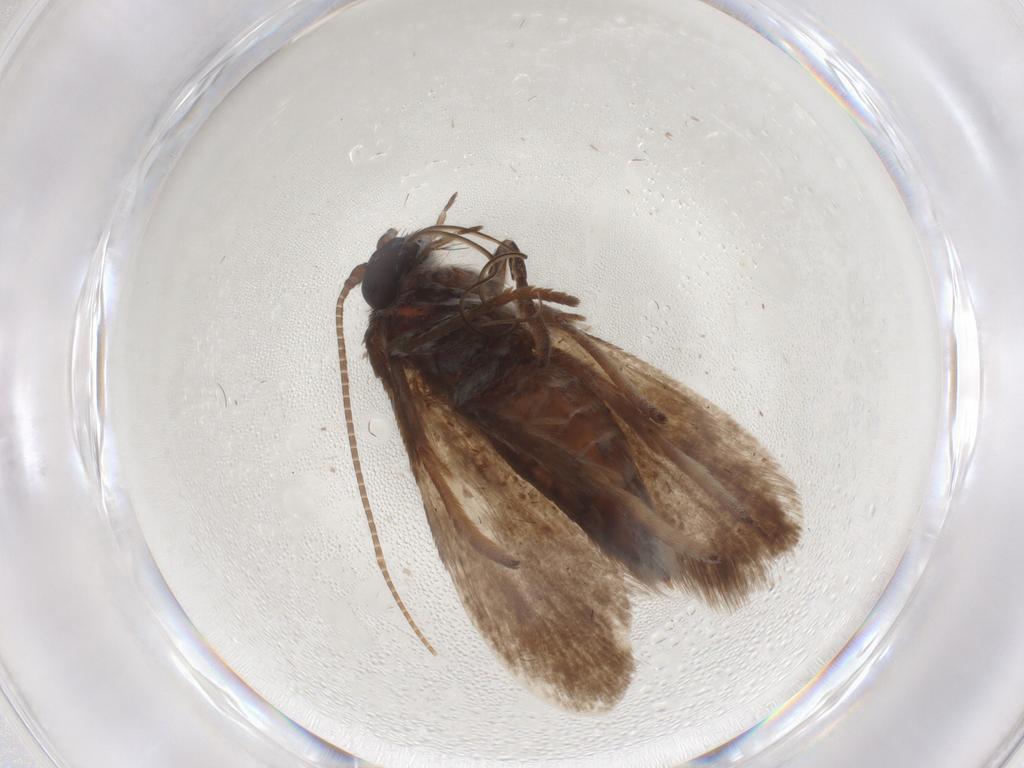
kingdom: Animalia
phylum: Arthropoda
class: Insecta
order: Lepidoptera
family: Adelidae
